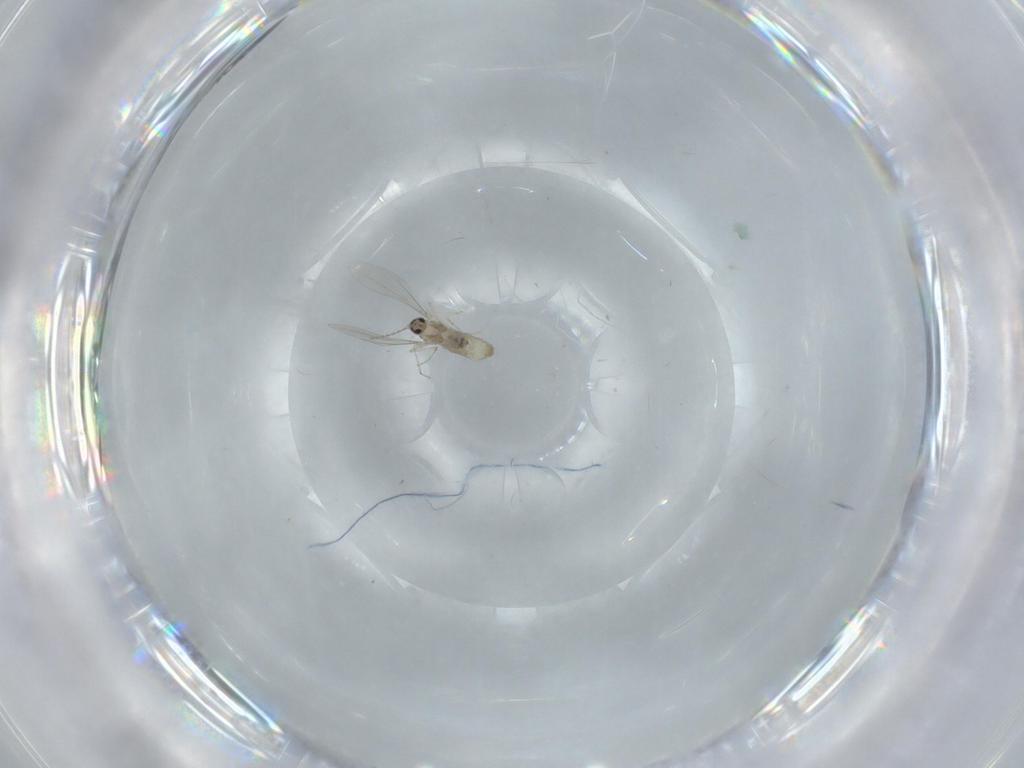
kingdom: Animalia
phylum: Arthropoda
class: Insecta
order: Diptera
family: Cecidomyiidae
